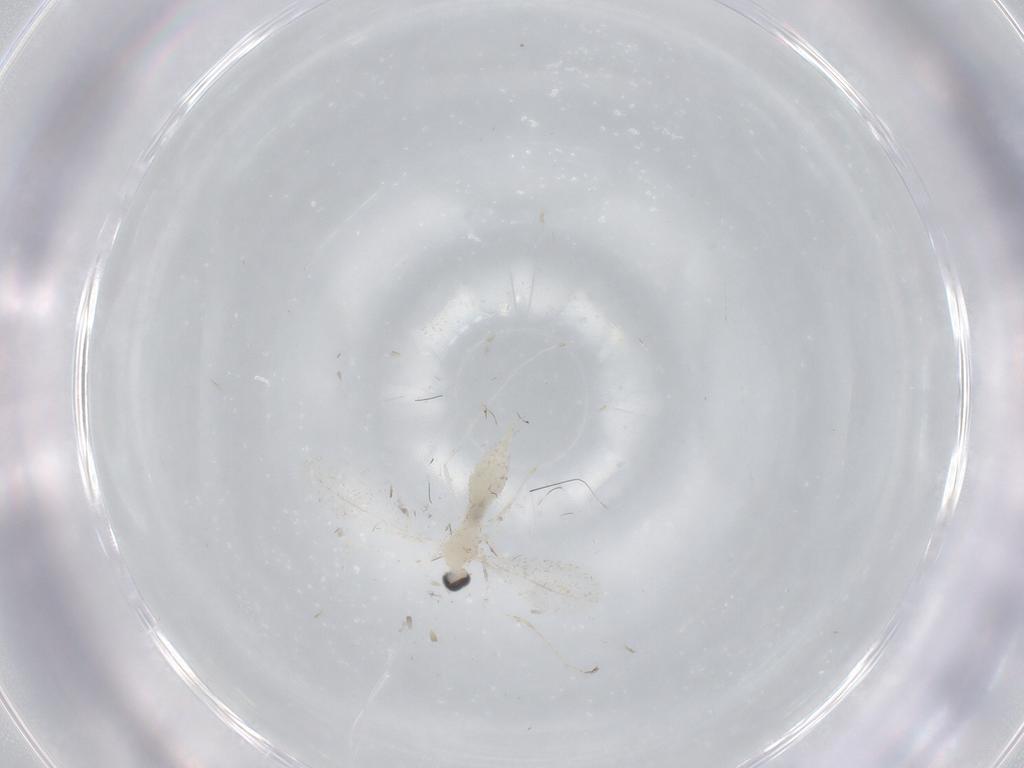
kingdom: Animalia
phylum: Arthropoda
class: Insecta
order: Diptera
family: Cecidomyiidae
